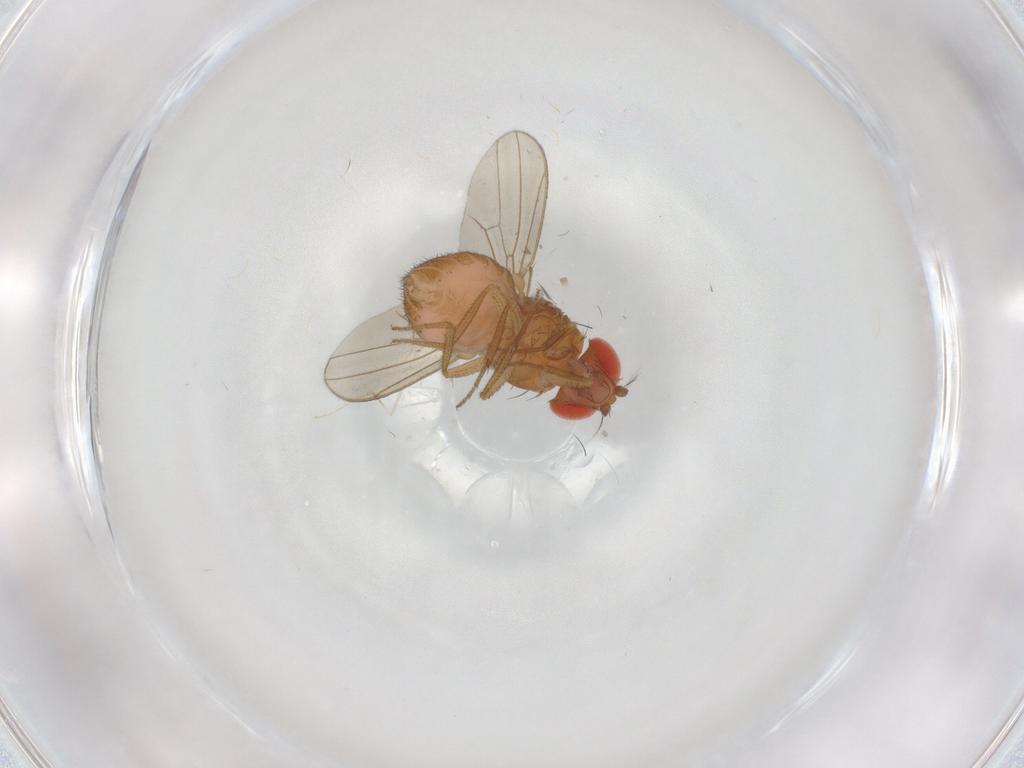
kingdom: Animalia
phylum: Arthropoda
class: Insecta
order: Diptera
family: Drosophilidae
